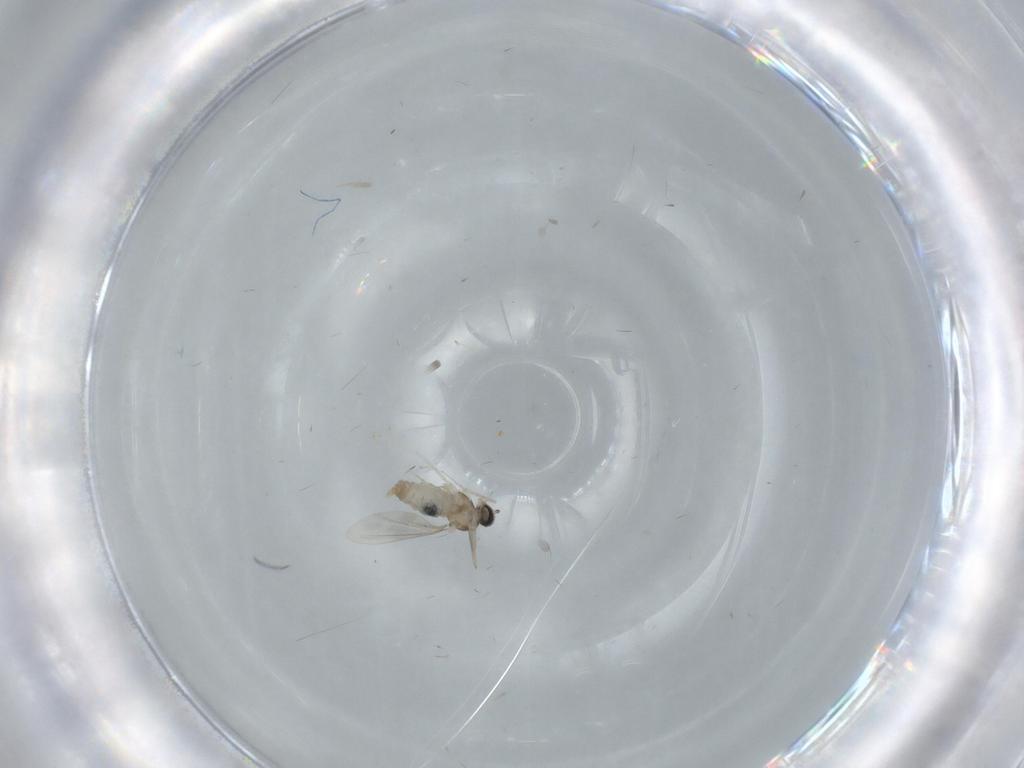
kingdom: Animalia
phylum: Arthropoda
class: Insecta
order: Diptera
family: Cecidomyiidae
